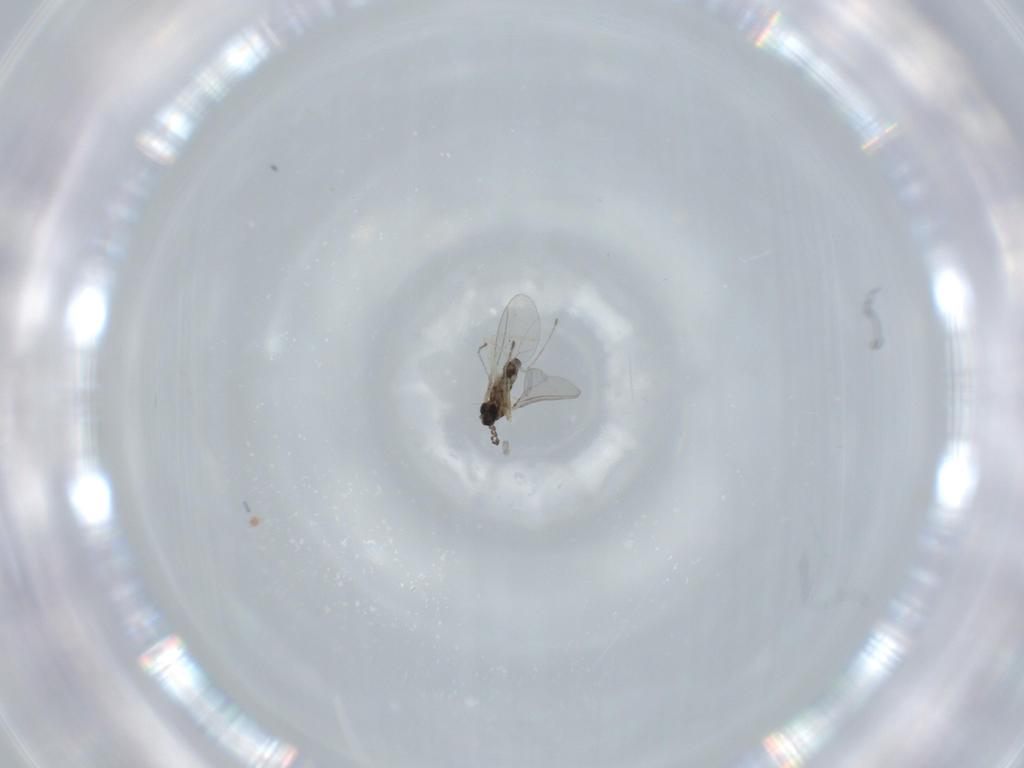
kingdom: Animalia
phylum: Arthropoda
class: Insecta
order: Diptera
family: Cecidomyiidae
